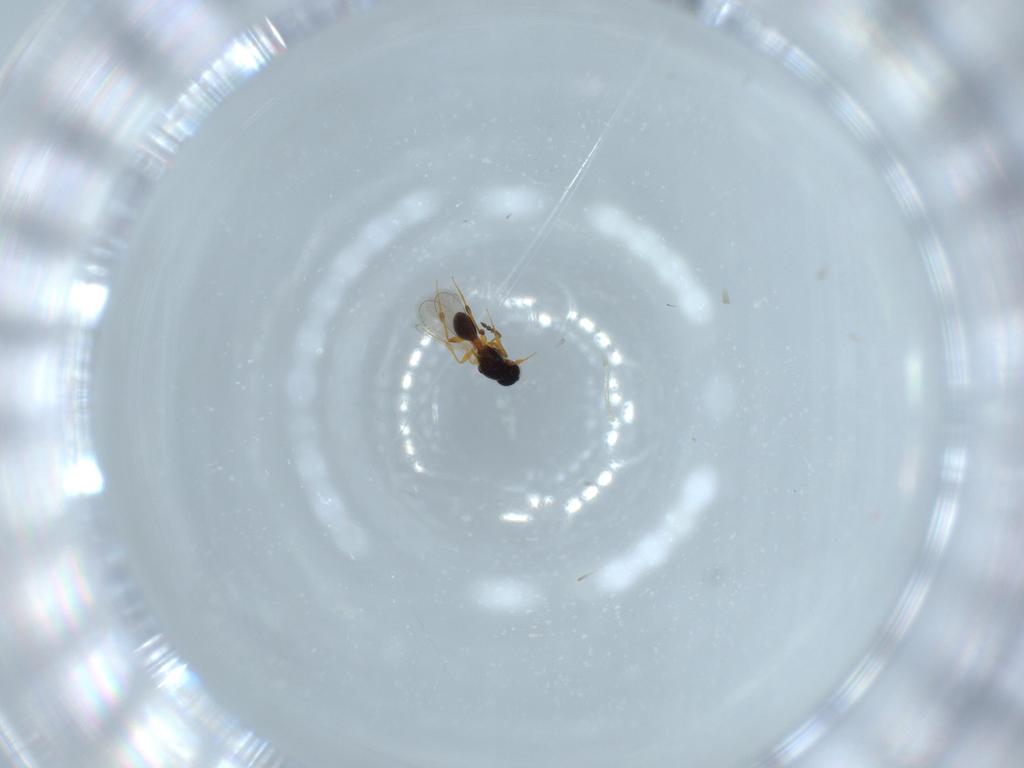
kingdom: Animalia
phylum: Arthropoda
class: Insecta
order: Hymenoptera
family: Platygastridae
